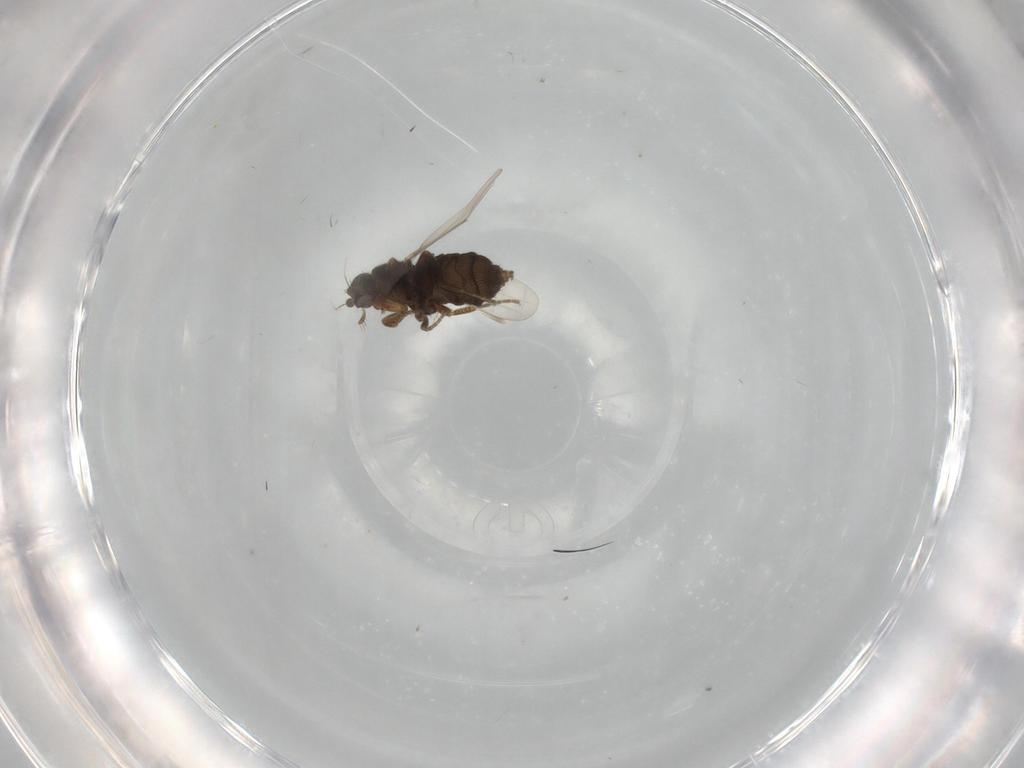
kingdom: Animalia
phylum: Arthropoda
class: Insecta
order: Diptera
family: Phoridae
